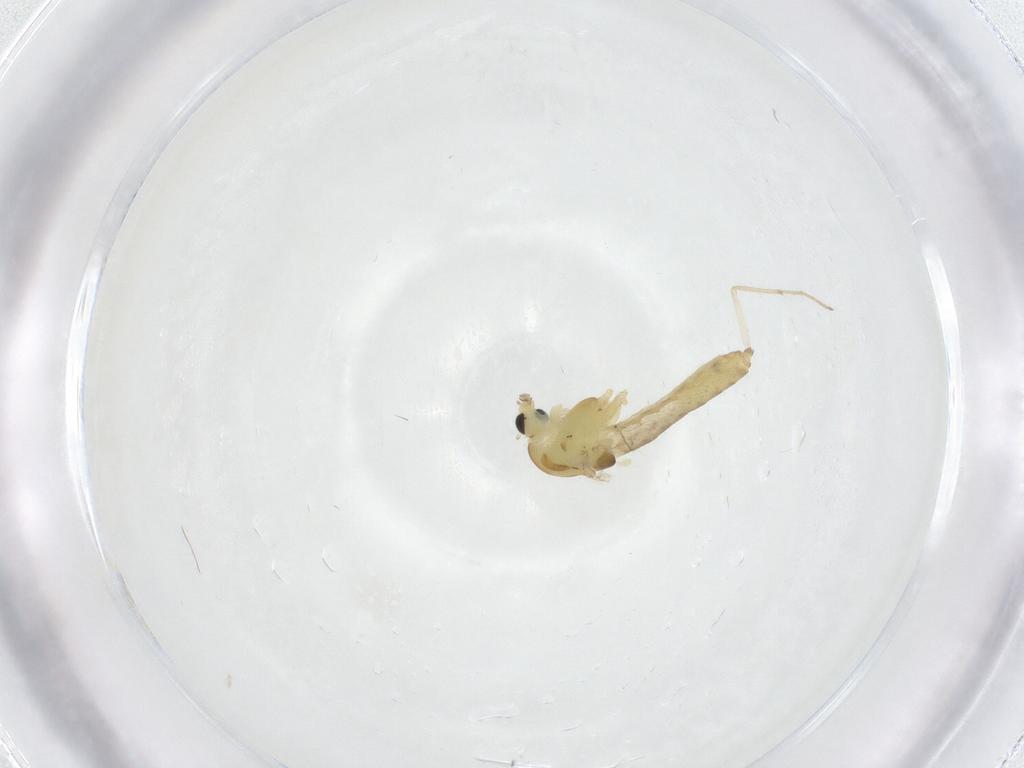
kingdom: Animalia
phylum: Arthropoda
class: Insecta
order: Diptera
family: Chironomidae
